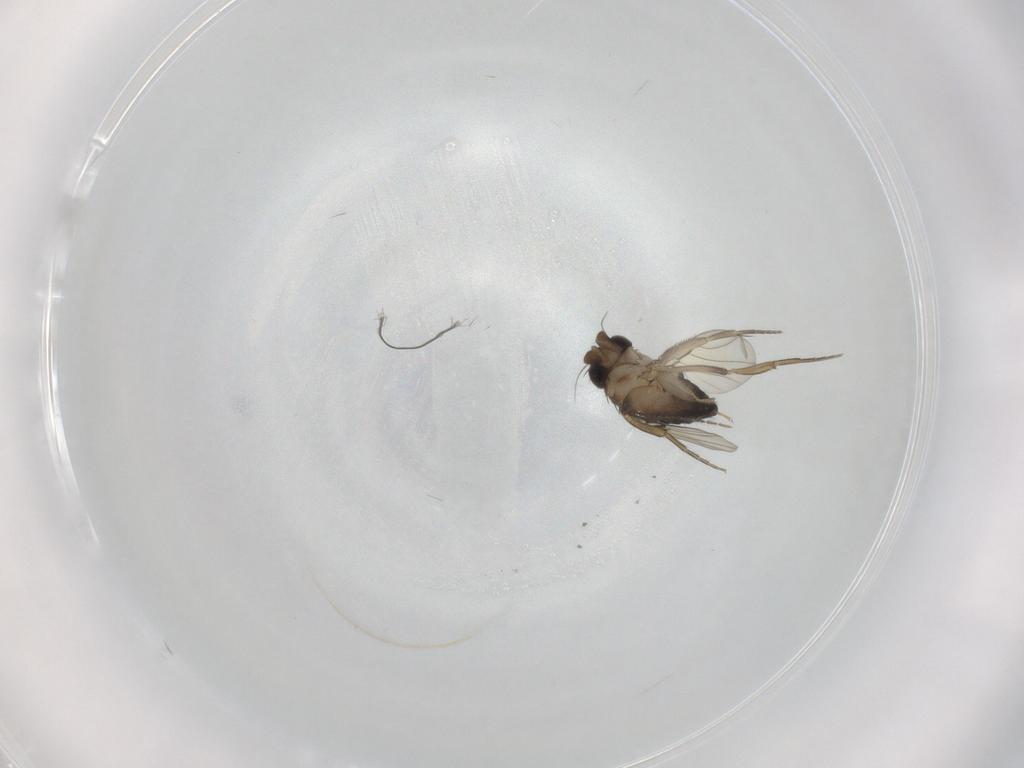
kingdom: Animalia
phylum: Arthropoda
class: Insecta
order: Diptera
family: Phoridae
